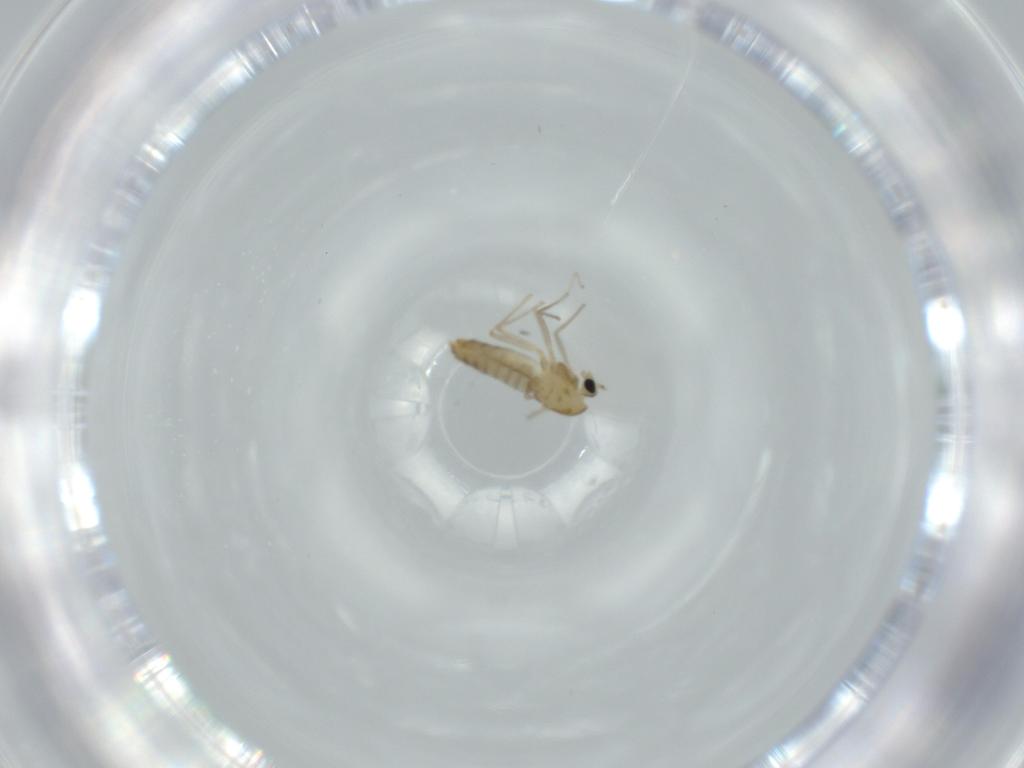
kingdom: Animalia
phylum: Arthropoda
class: Insecta
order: Diptera
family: Chironomidae
